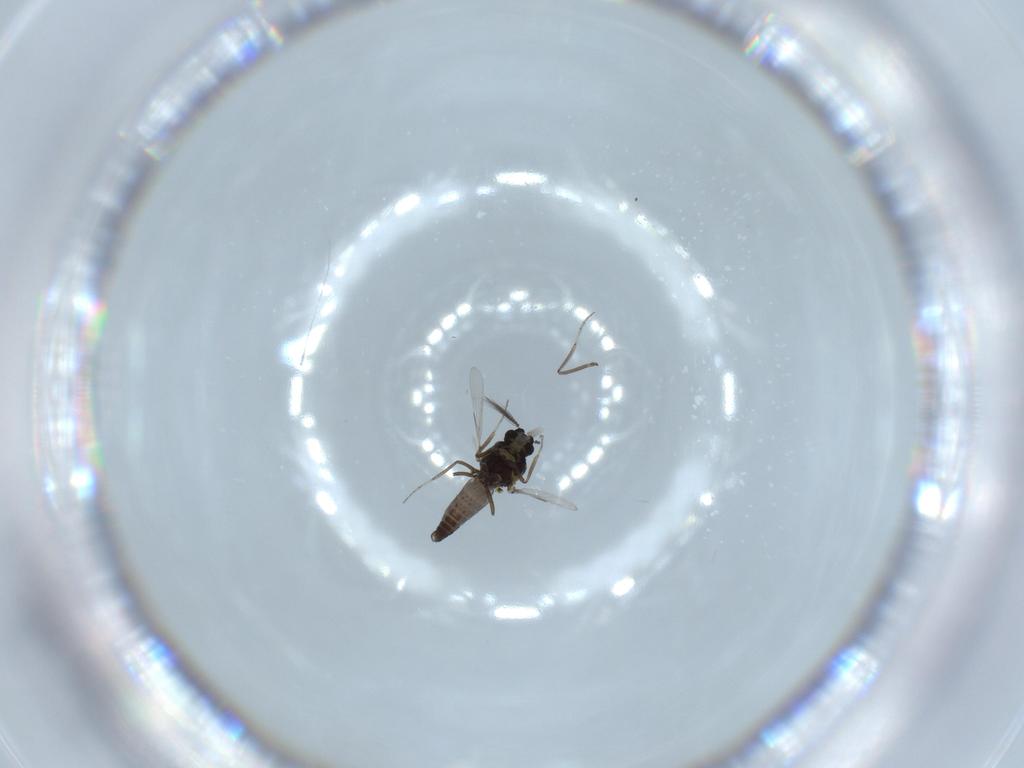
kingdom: Animalia
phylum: Arthropoda
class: Insecta
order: Diptera
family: Ceratopogonidae
